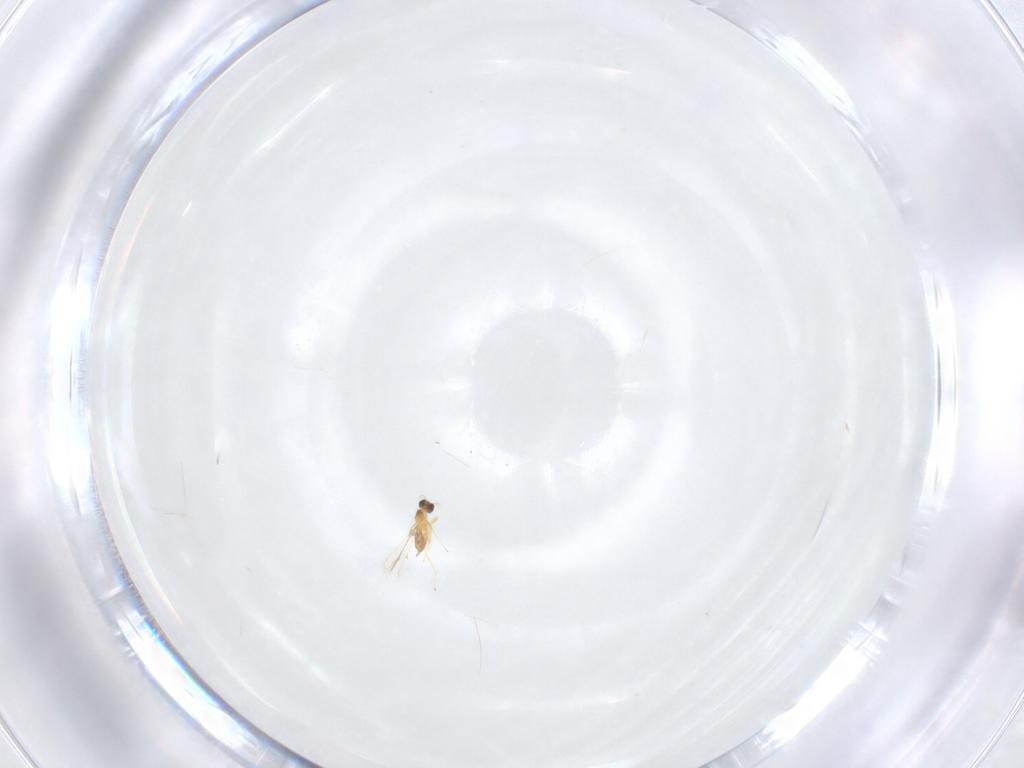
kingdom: Animalia
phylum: Arthropoda
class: Insecta
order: Hymenoptera
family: Mymaridae
